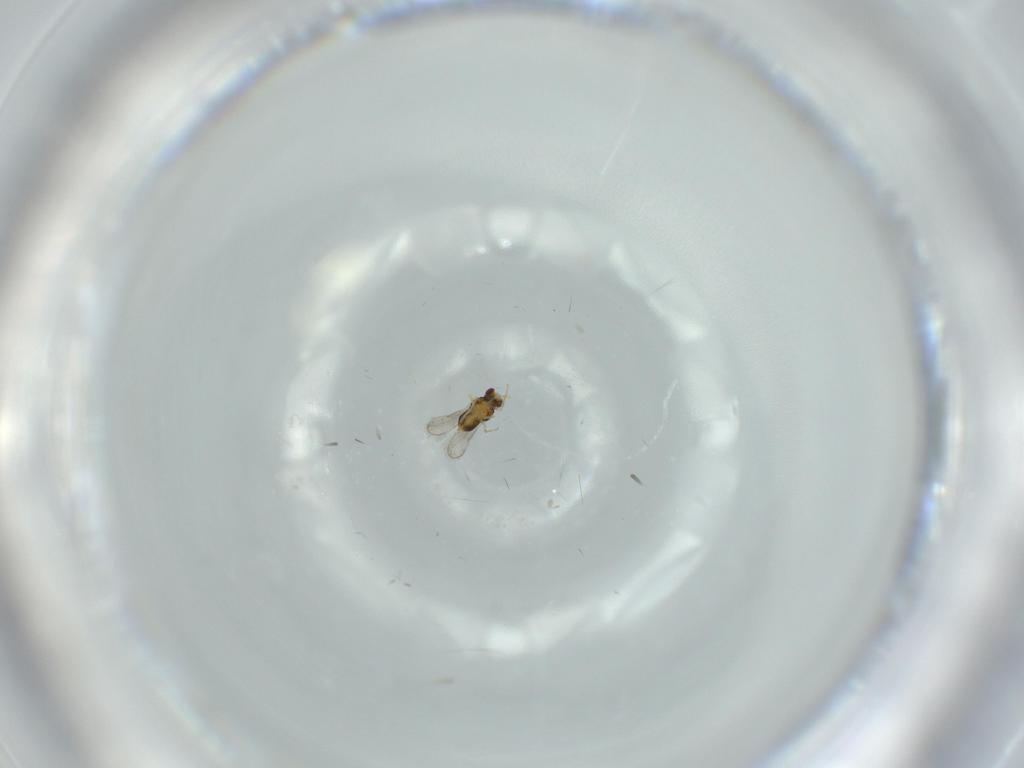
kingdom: Animalia
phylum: Arthropoda
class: Insecta
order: Hymenoptera
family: Aphelinidae
